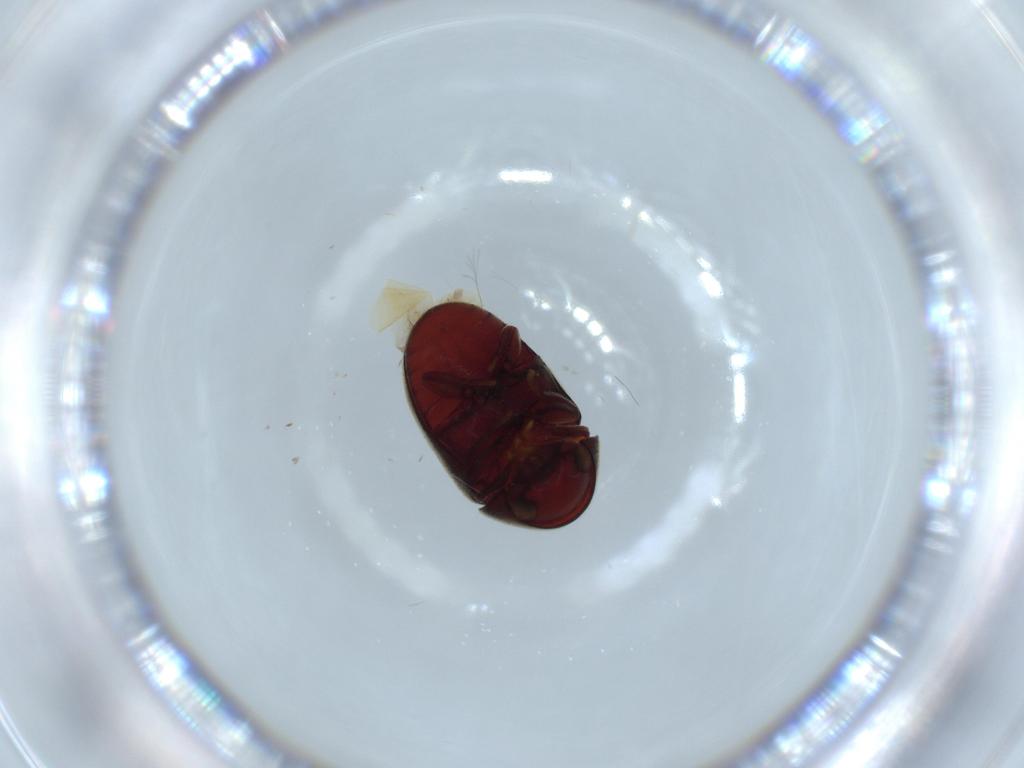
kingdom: Animalia
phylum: Arthropoda
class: Insecta
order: Coleoptera
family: Ptinidae
